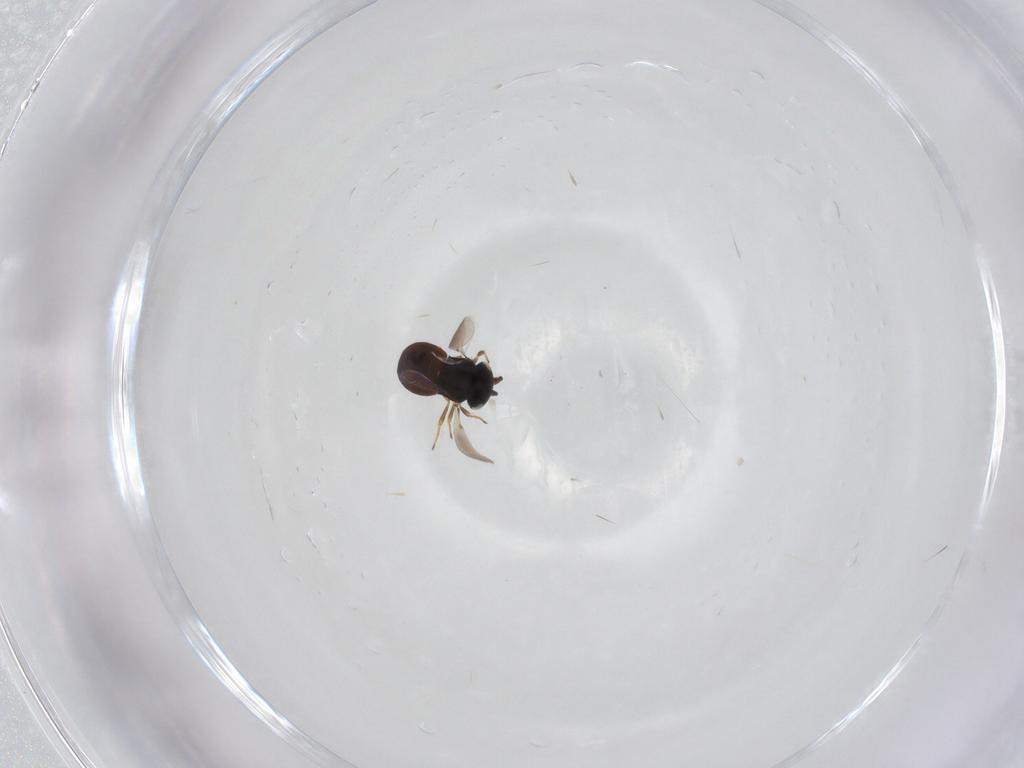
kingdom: Animalia
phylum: Arthropoda
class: Insecta
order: Hymenoptera
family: Scelionidae
